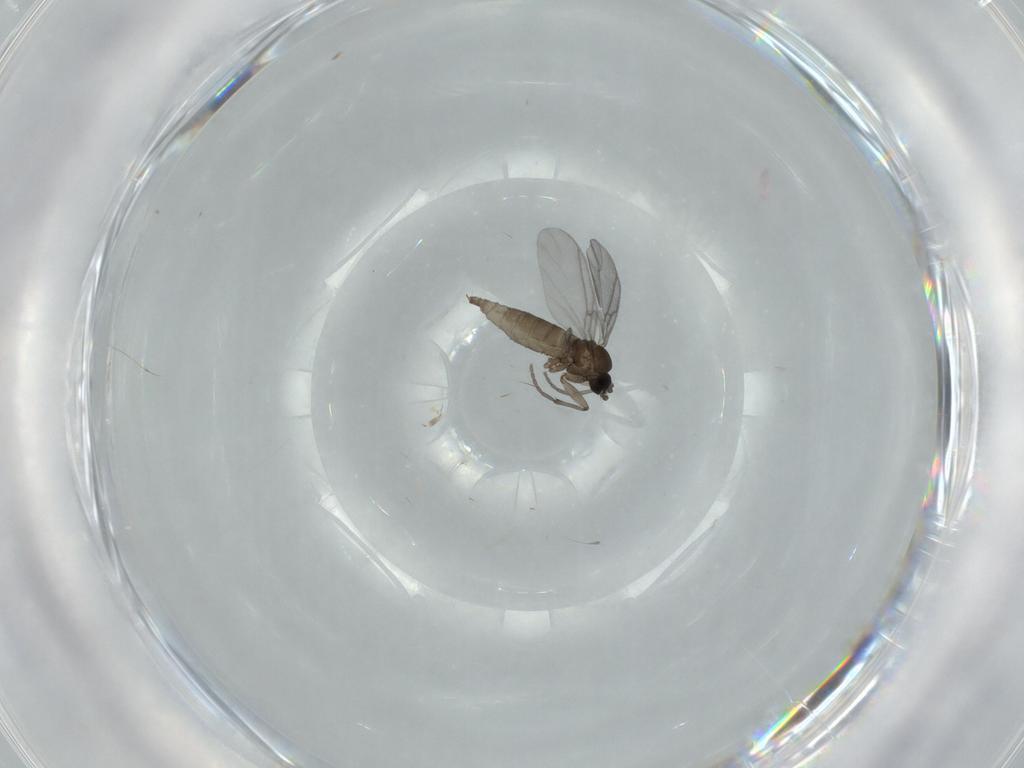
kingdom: Animalia
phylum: Arthropoda
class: Insecta
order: Diptera
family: Sciaridae
